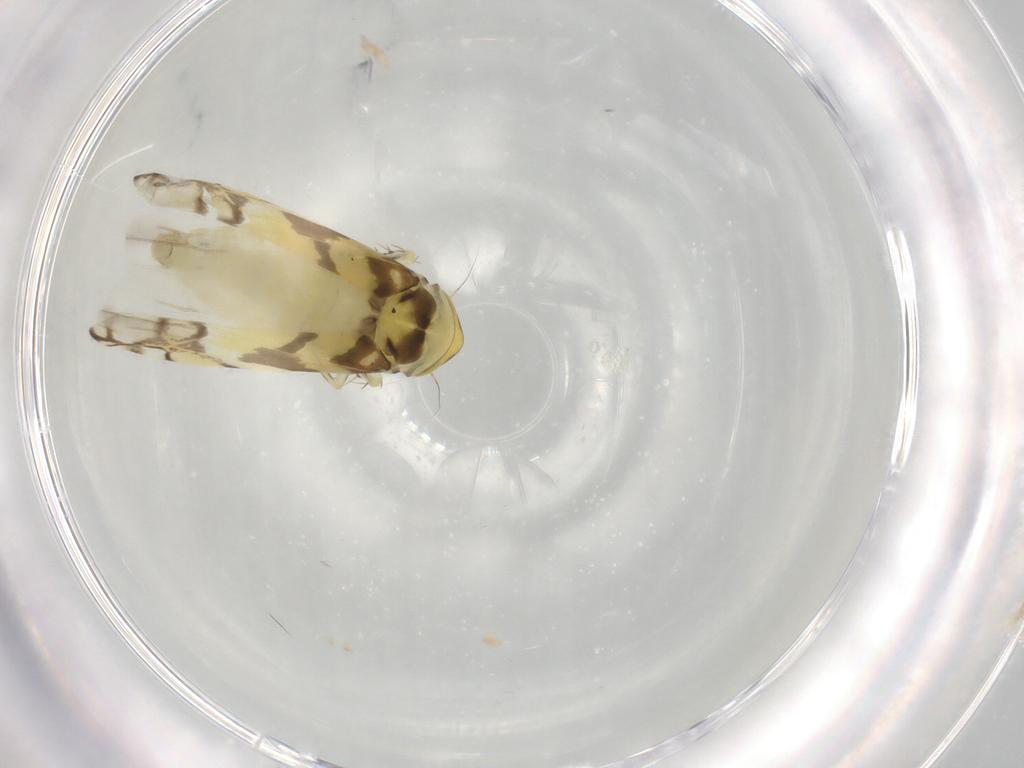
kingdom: Animalia
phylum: Arthropoda
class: Insecta
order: Hemiptera
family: Cicadellidae
